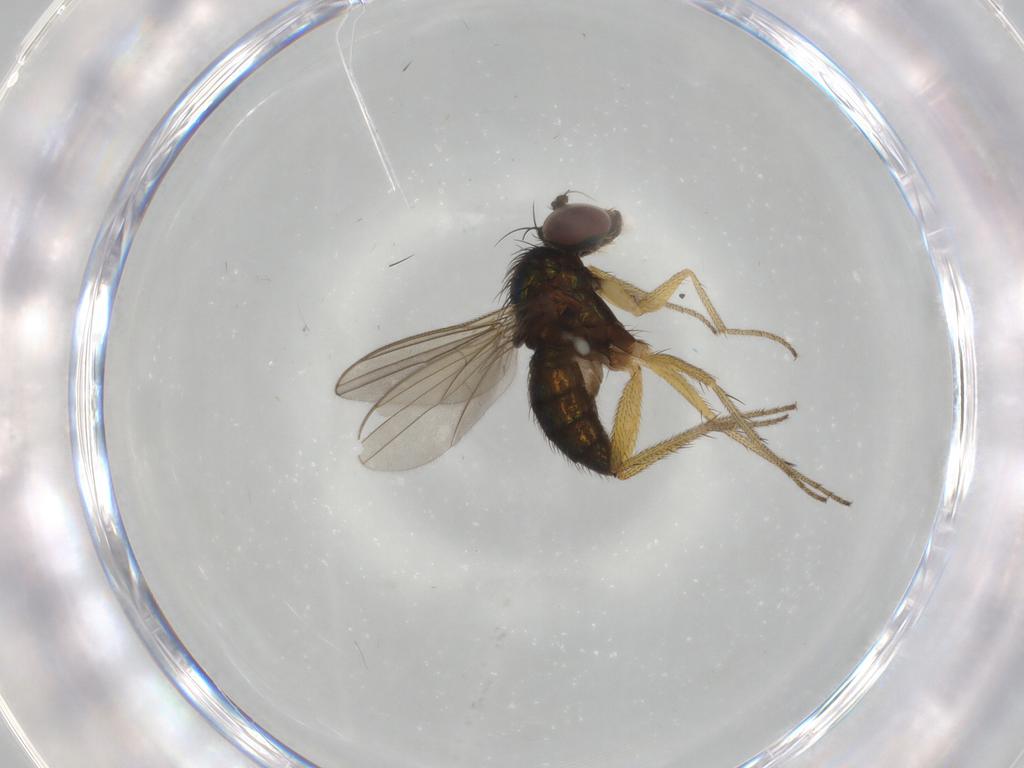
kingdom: Animalia
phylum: Arthropoda
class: Insecta
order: Diptera
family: Dolichopodidae
